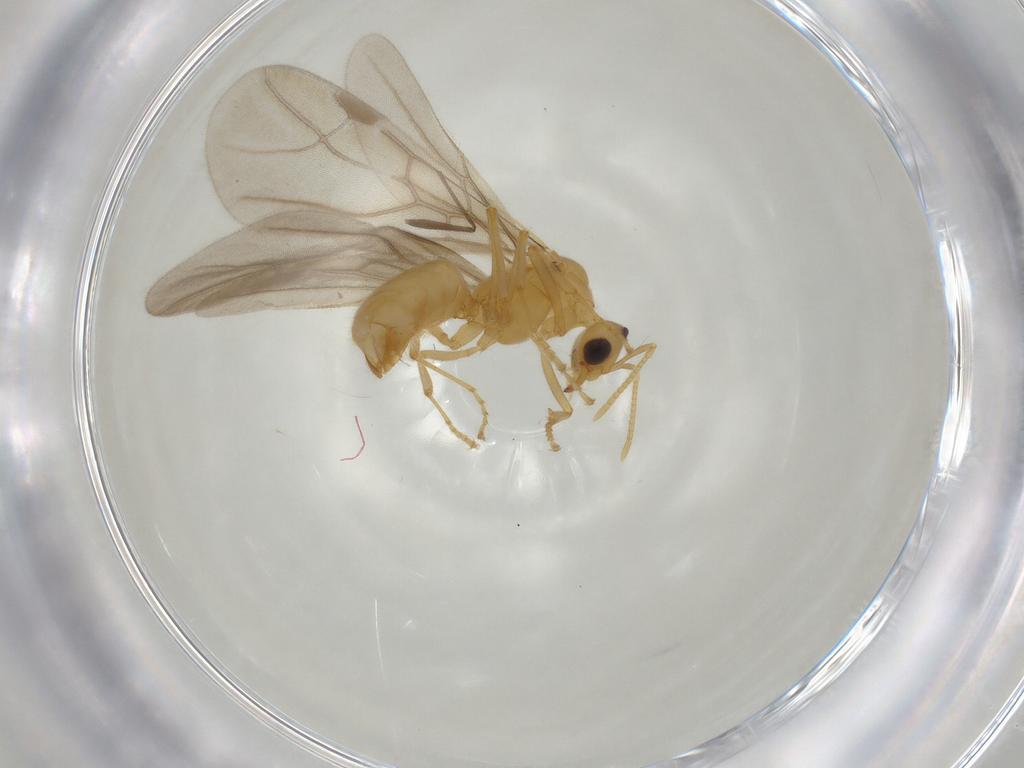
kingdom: Animalia
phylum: Arthropoda
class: Insecta
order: Hymenoptera
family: Formicidae
